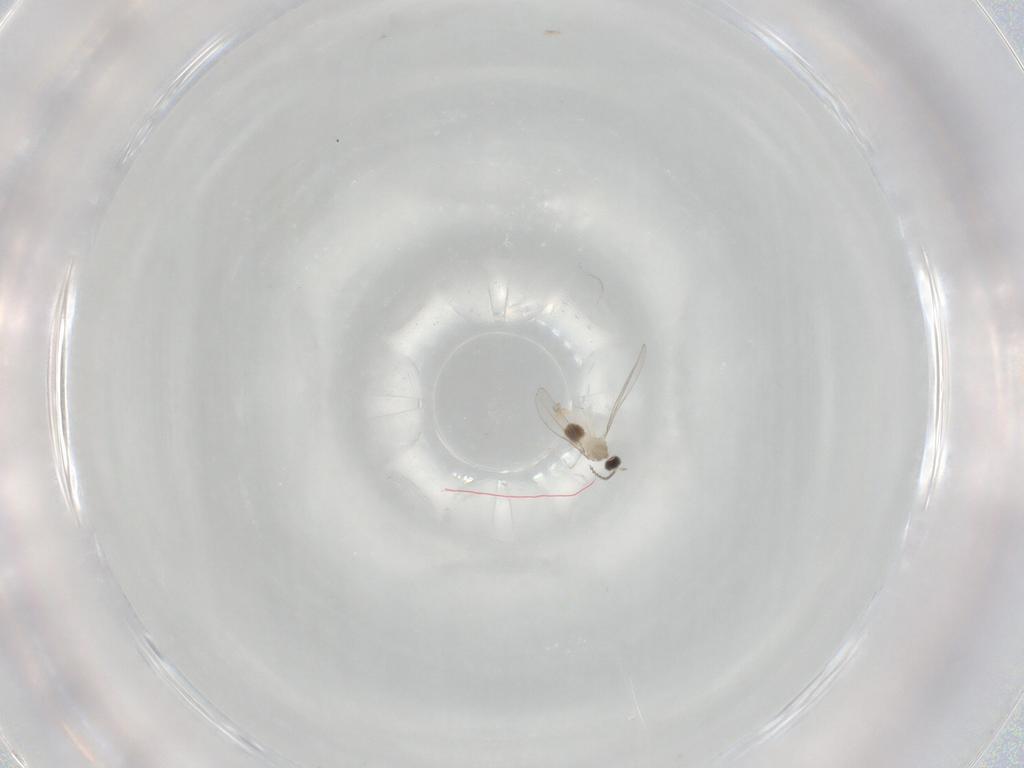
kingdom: Animalia
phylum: Arthropoda
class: Insecta
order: Diptera
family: Cecidomyiidae
